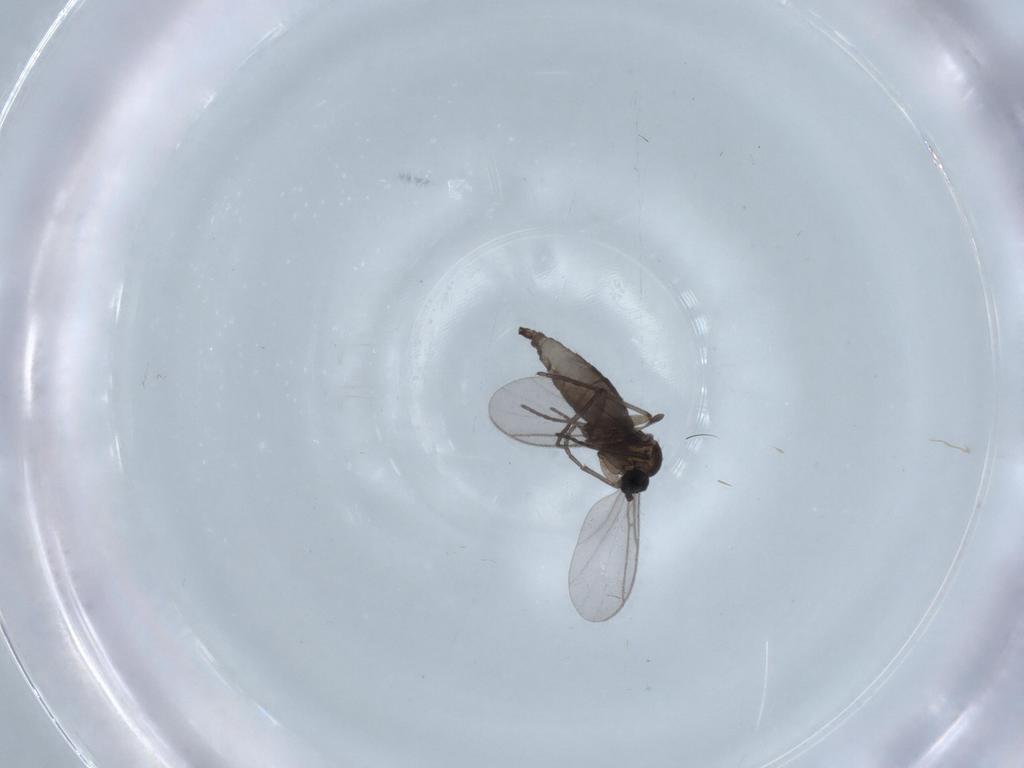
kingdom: Animalia
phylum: Arthropoda
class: Insecta
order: Diptera
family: Chironomidae
